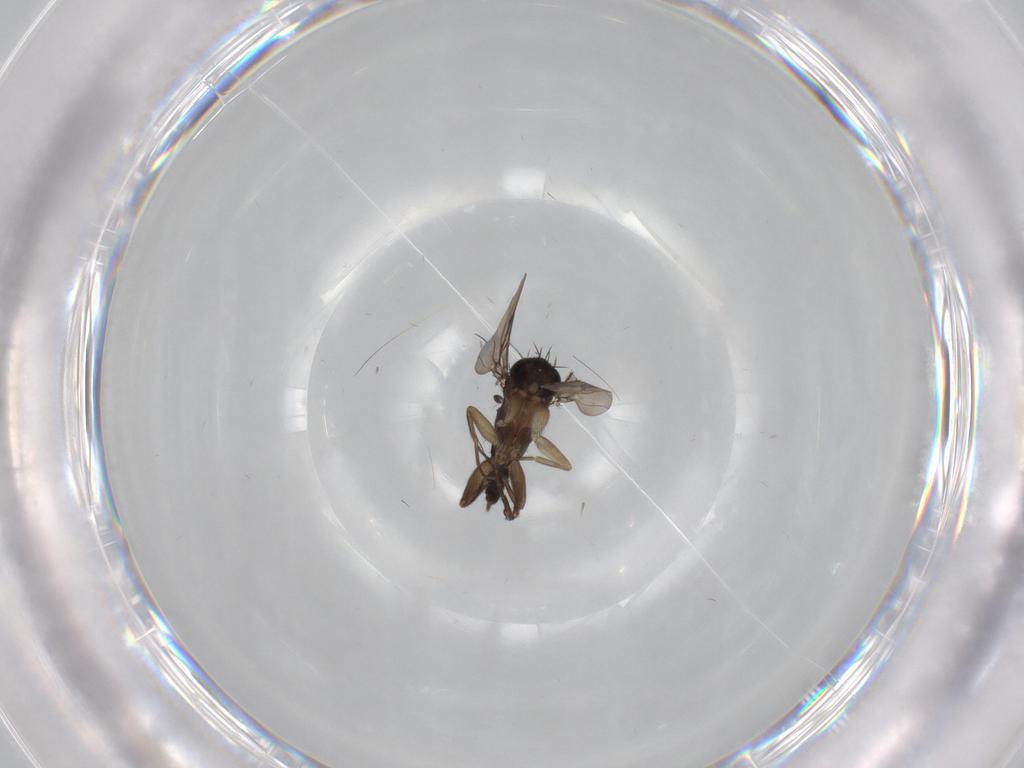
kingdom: Animalia
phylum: Arthropoda
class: Insecta
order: Diptera
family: Phoridae
